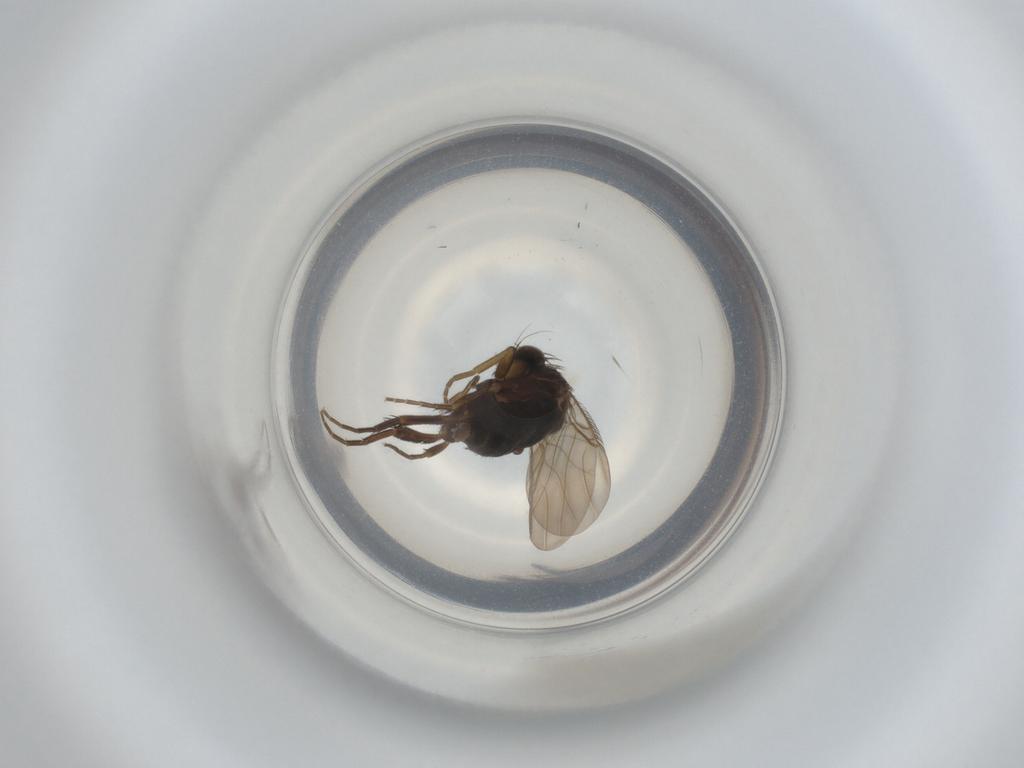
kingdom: Animalia
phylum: Arthropoda
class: Insecta
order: Diptera
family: Phoridae
